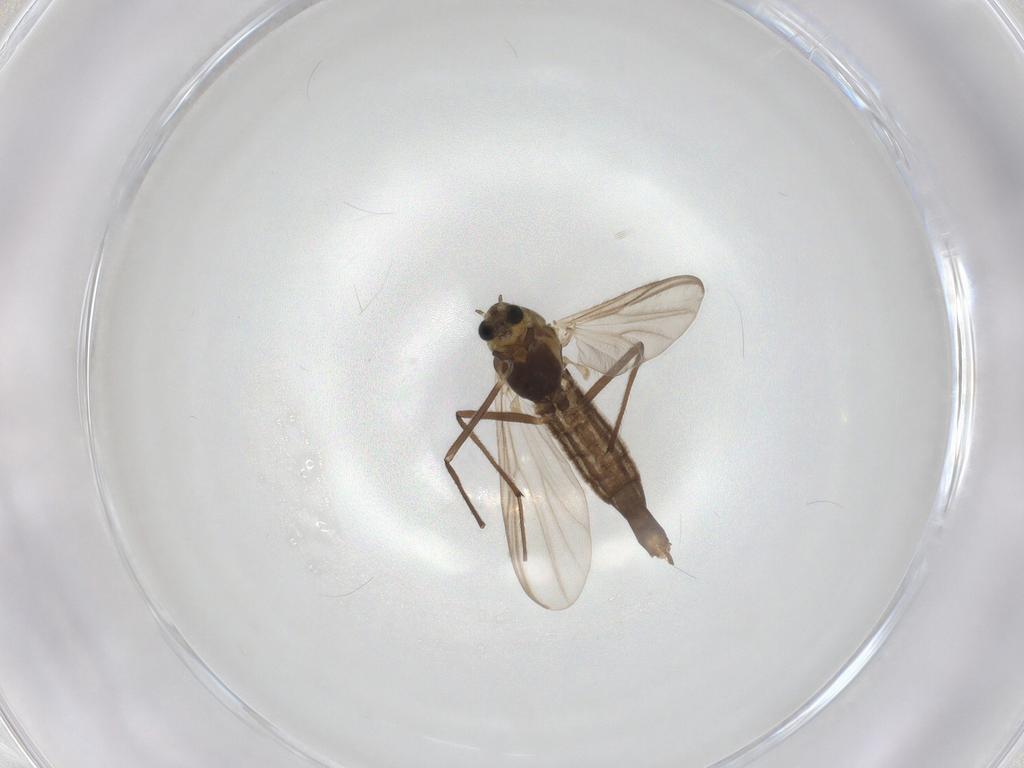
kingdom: Animalia
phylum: Arthropoda
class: Insecta
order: Diptera
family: Chironomidae
